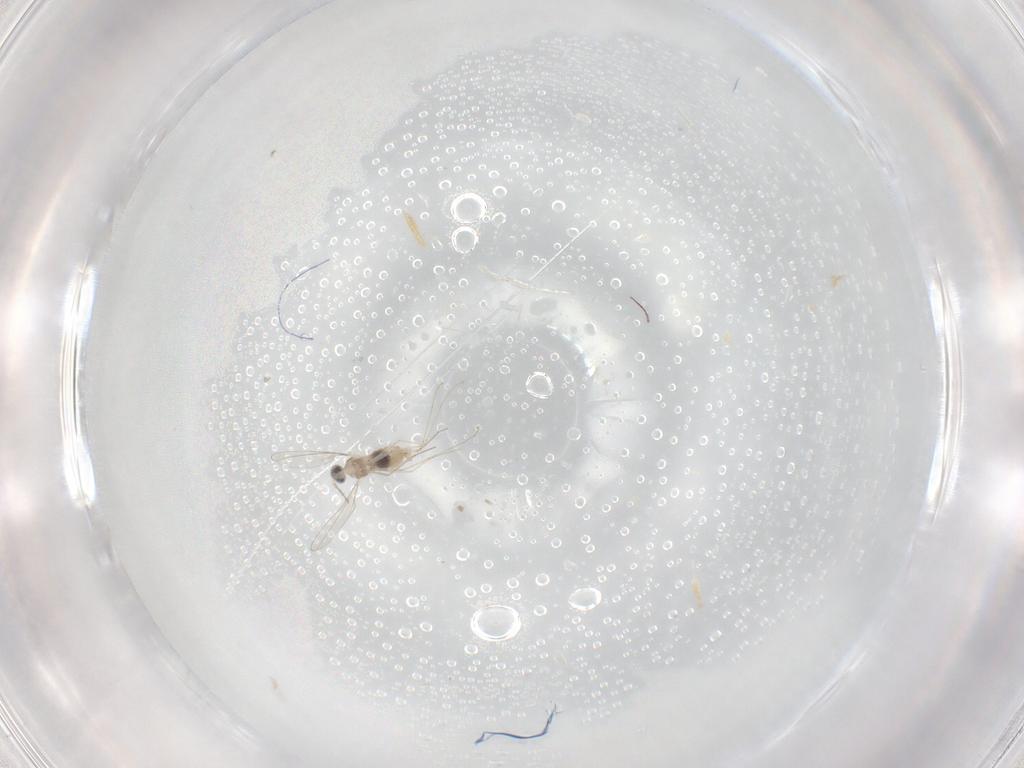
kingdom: Animalia
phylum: Arthropoda
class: Insecta
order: Diptera
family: Cecidomyiidae
